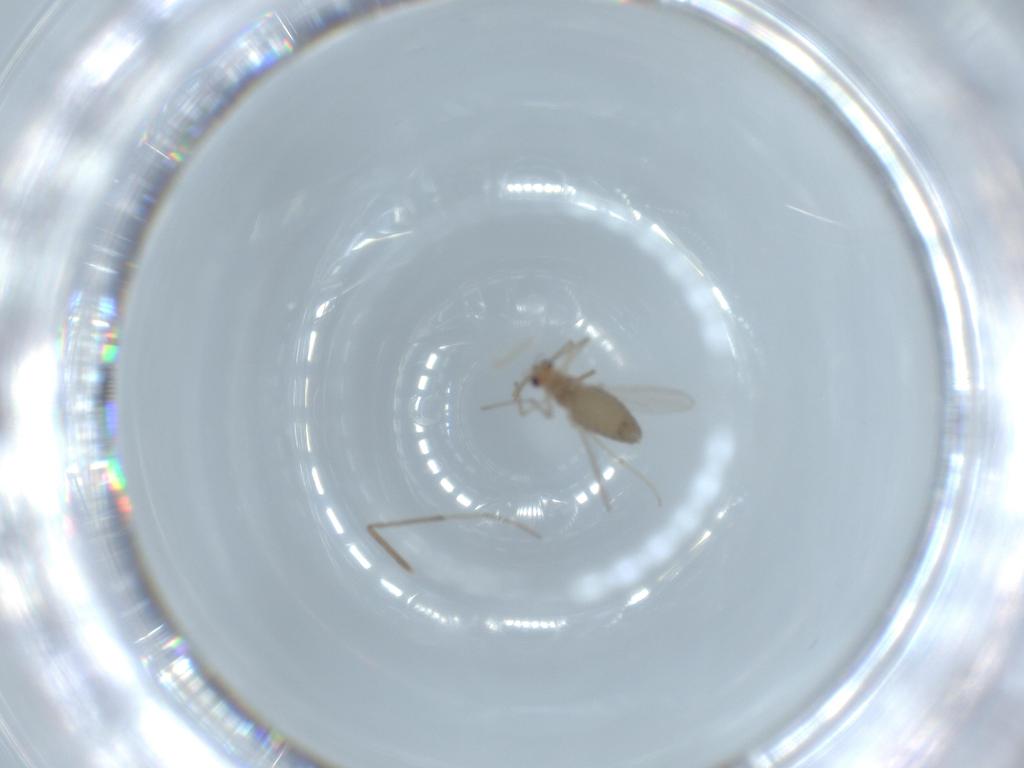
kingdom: Animalia
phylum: Arthropoda
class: Insecta
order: Diptera
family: Chironomidae
